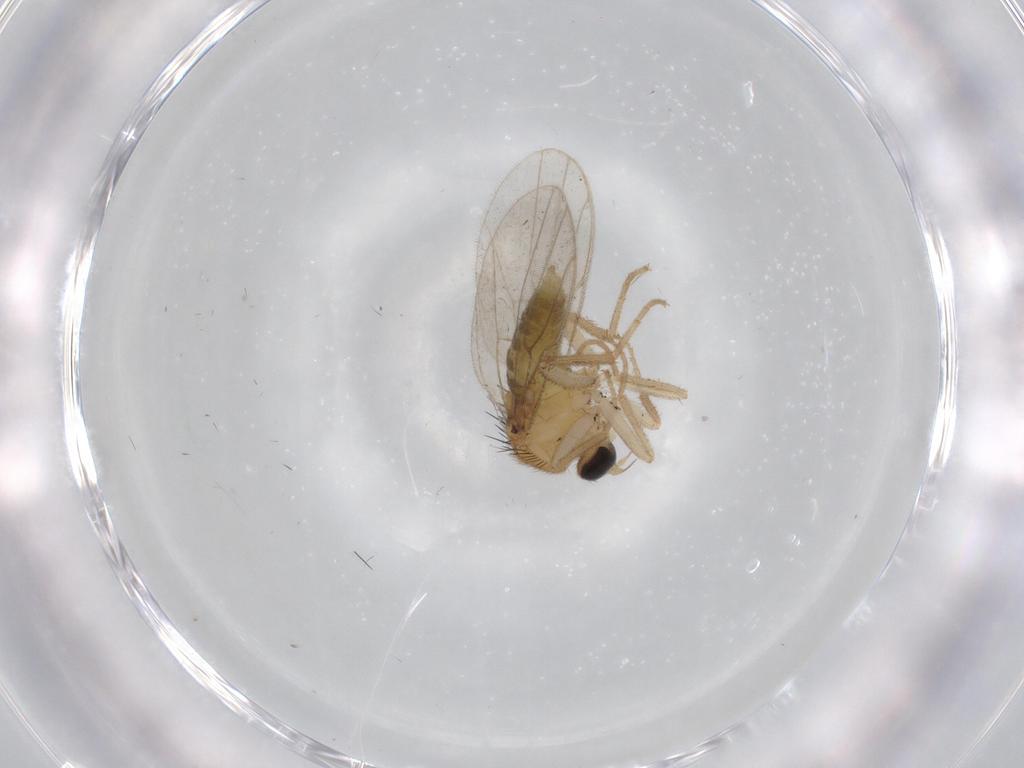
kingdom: Animalia
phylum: Arthropoda
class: Insecta
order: Diptera
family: Hybotidae
